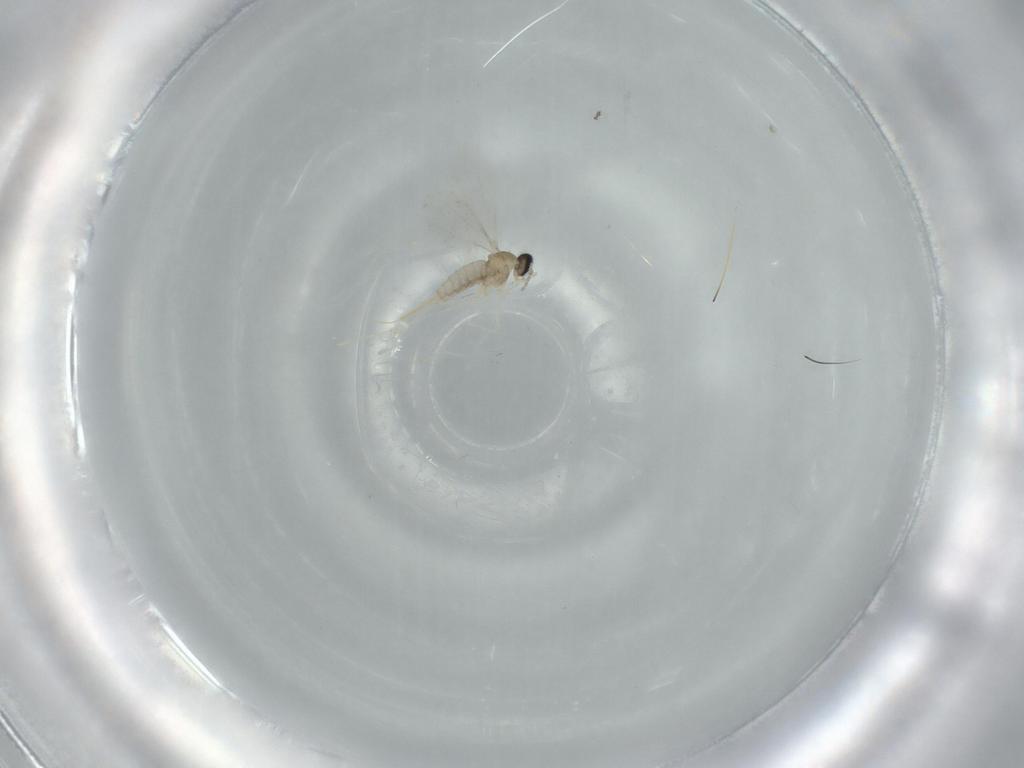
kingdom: Animalia
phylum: Arthropoda
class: Insecta
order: Diptera
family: Cecidomyiidae
